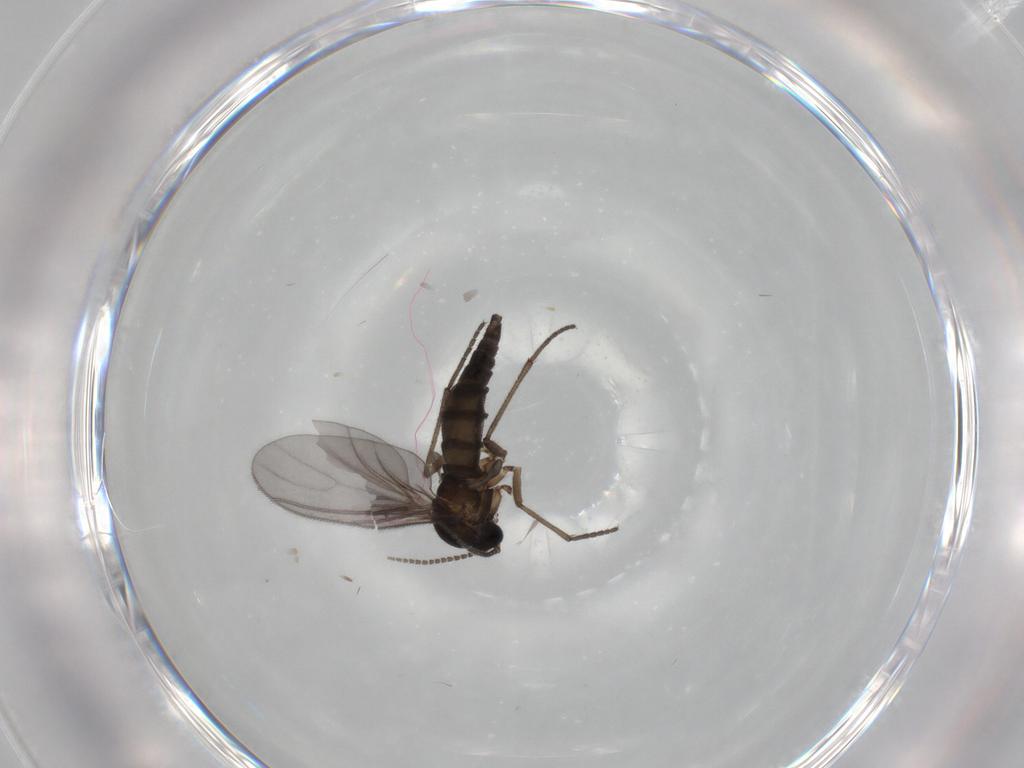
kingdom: Animalia
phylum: Arthropoda
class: Insecta
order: Diptera
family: Sciaridae
